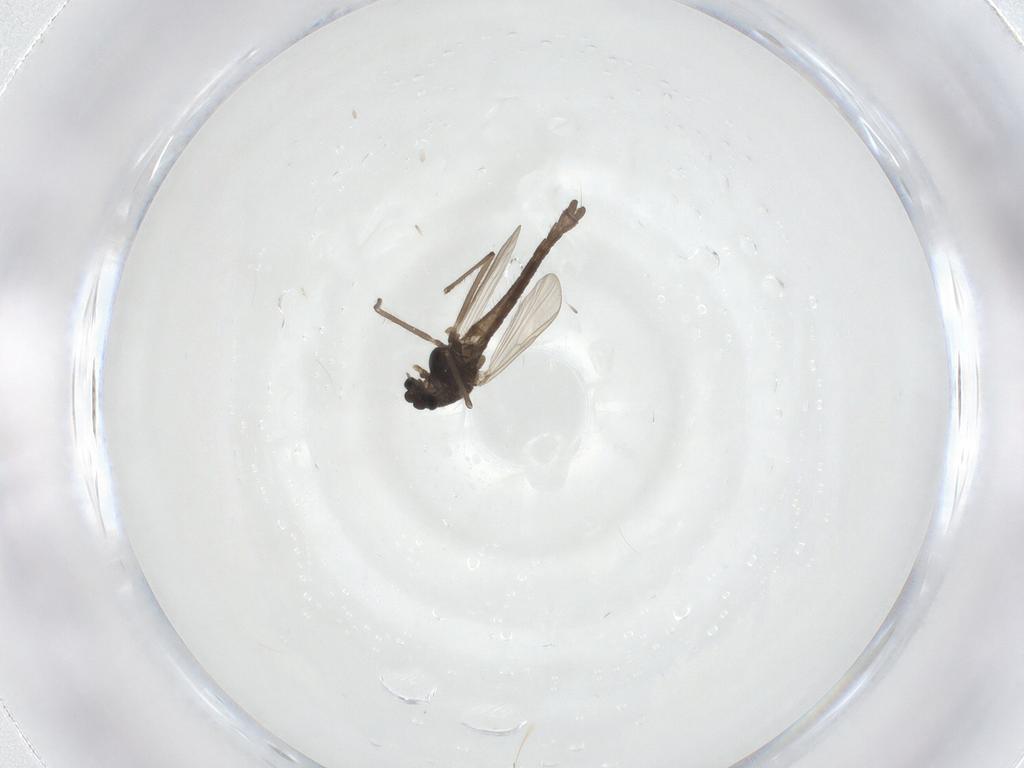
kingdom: Animalia
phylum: Arthropoda
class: Insecta
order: Diptera
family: Chironomidae
